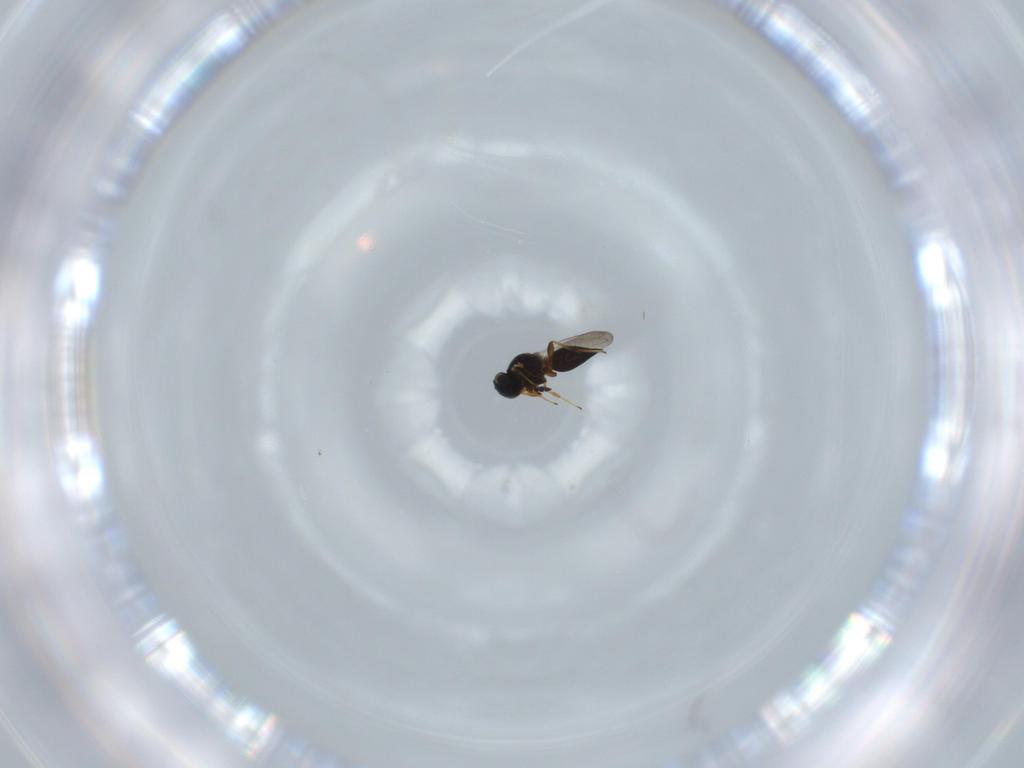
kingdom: Animalia
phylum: Arthropoda
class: Insecta
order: Hymenoptera
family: Platygastridae
